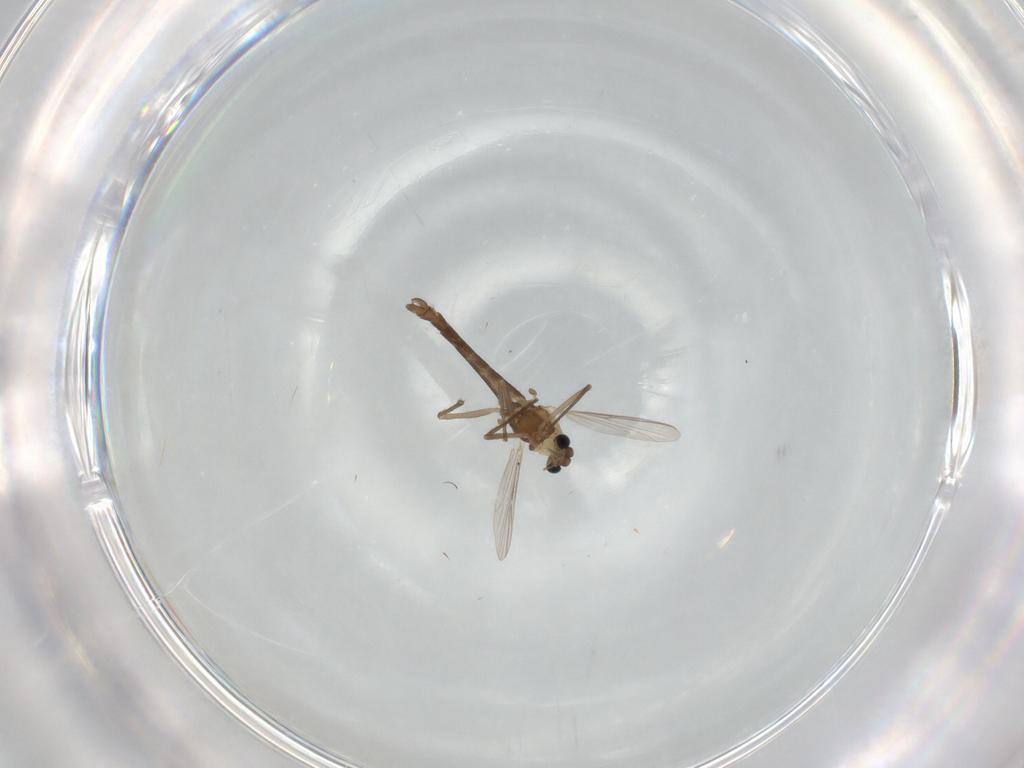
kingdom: Animalia
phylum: Arthropoda
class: Insecta
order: Diptera
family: Chironomidae
